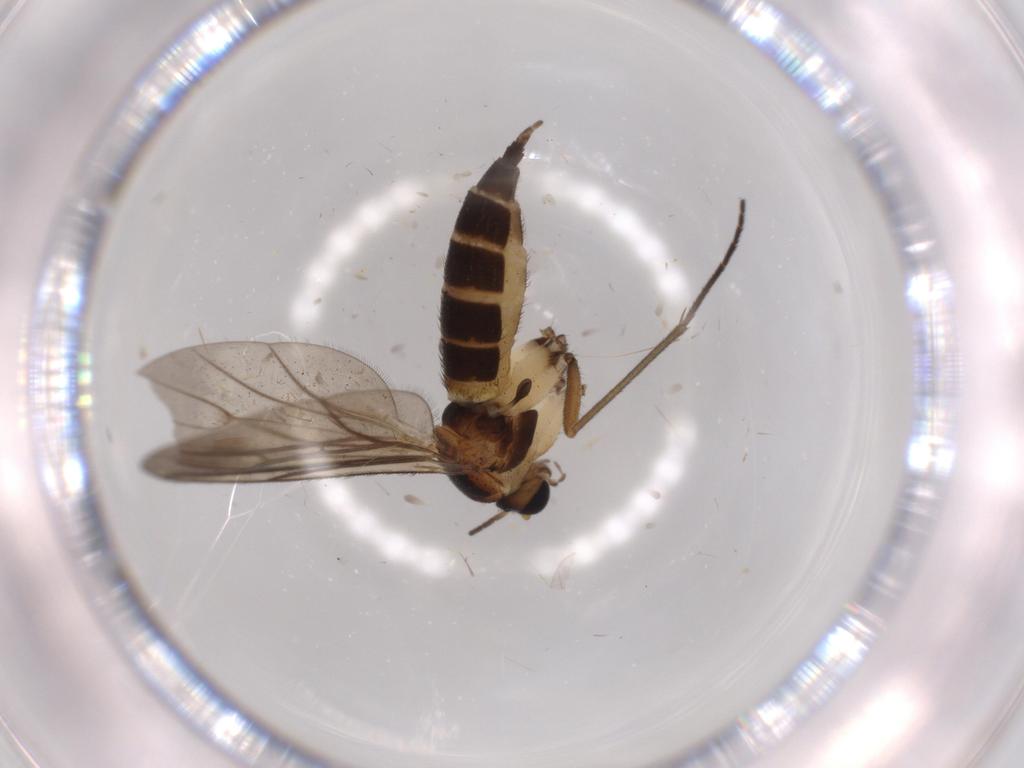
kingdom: Animalia
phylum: Arthropoda
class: Insecta
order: Diptera
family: Sciaridae
